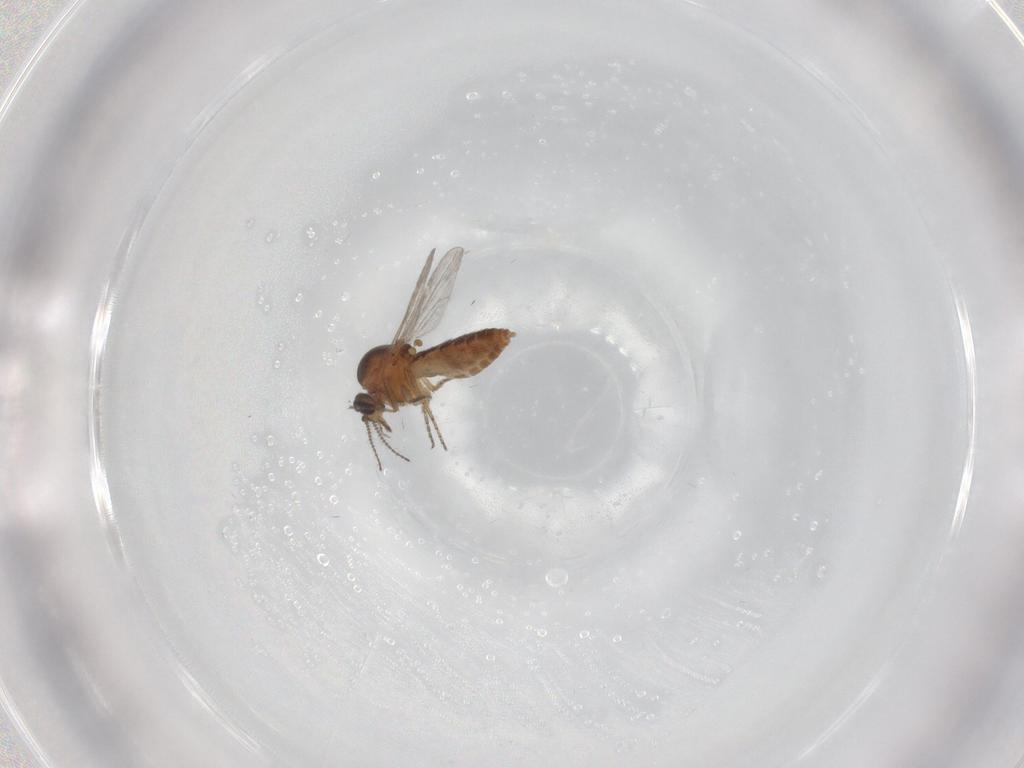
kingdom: Animalia
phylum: Arthropoda
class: Insecta
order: Diptera
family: Ceratopogonidae
